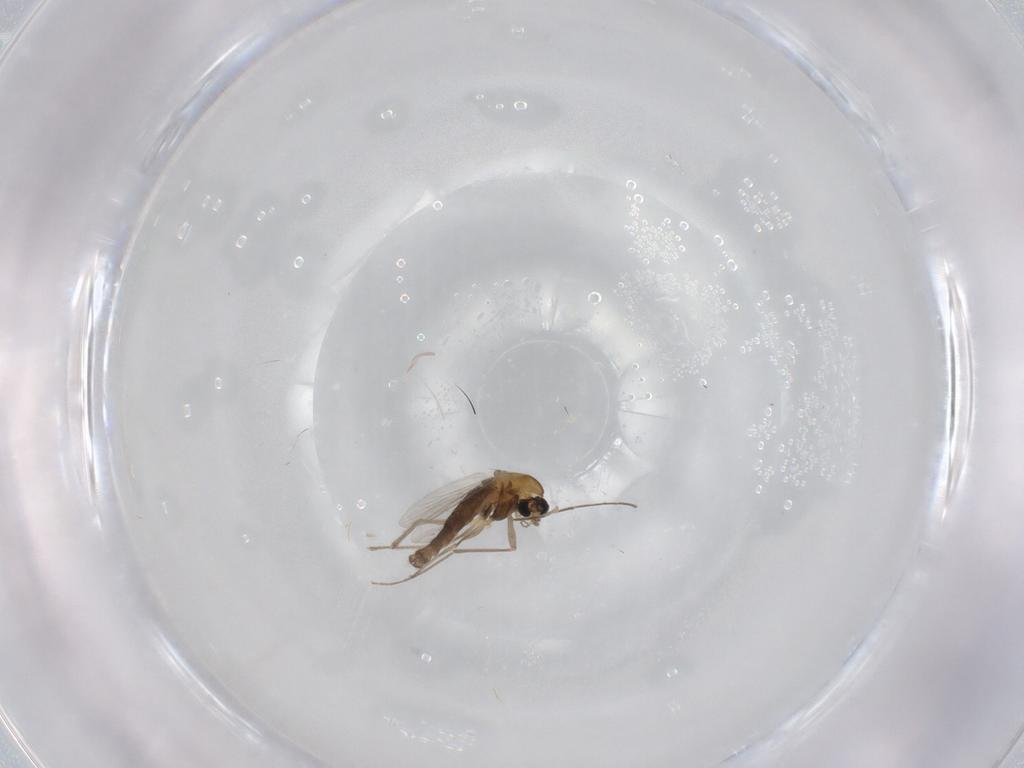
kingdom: Animalia
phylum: Arthropoda
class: Insecta
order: Diptera
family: Chironomidae
